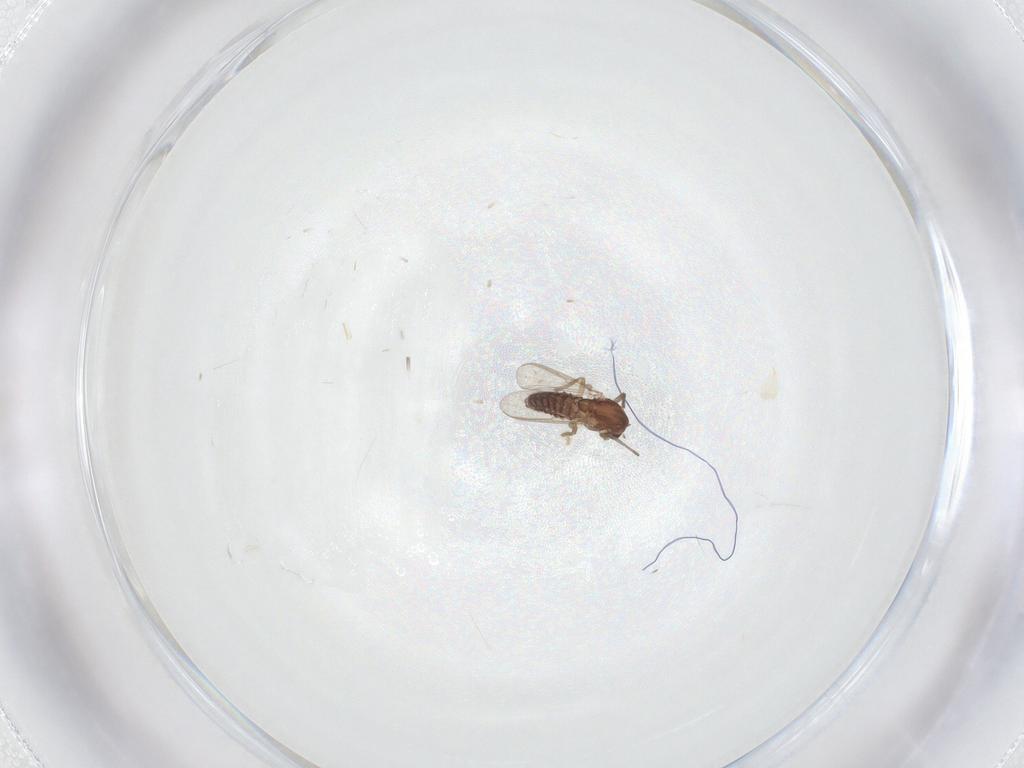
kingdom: Animalia
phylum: Arthropoda
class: Insecta
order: Diptera
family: Chironomidae
